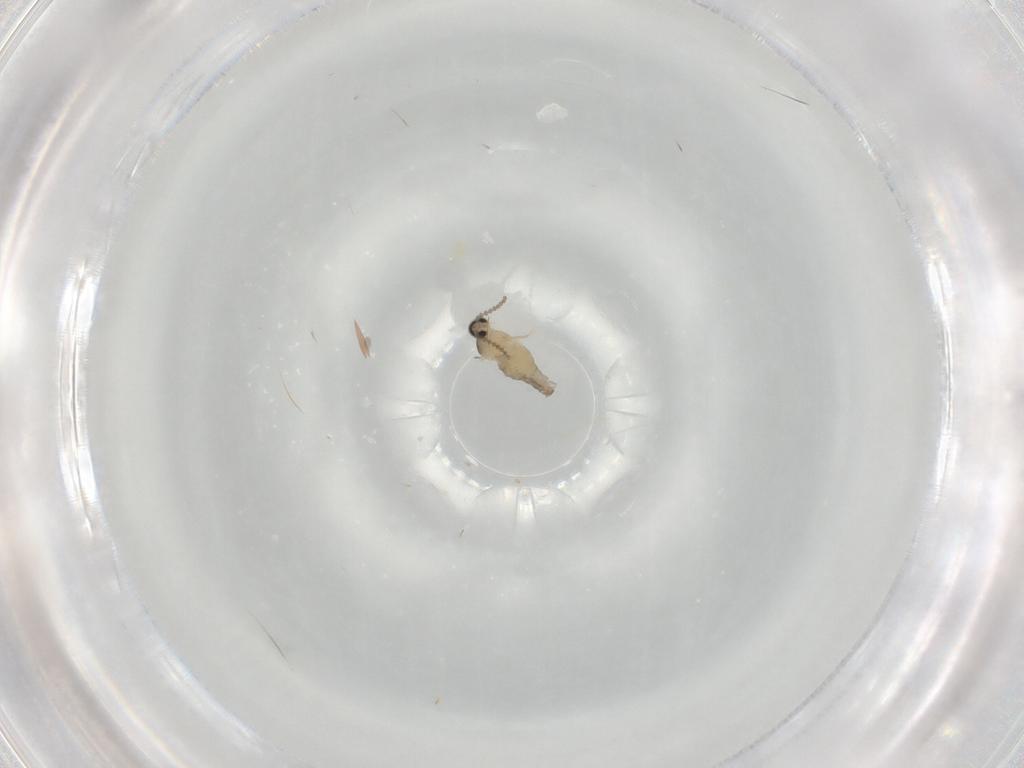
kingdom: Animalia
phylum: Arthropoda
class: Insecta
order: Diptera
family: Cecidomyiidae
